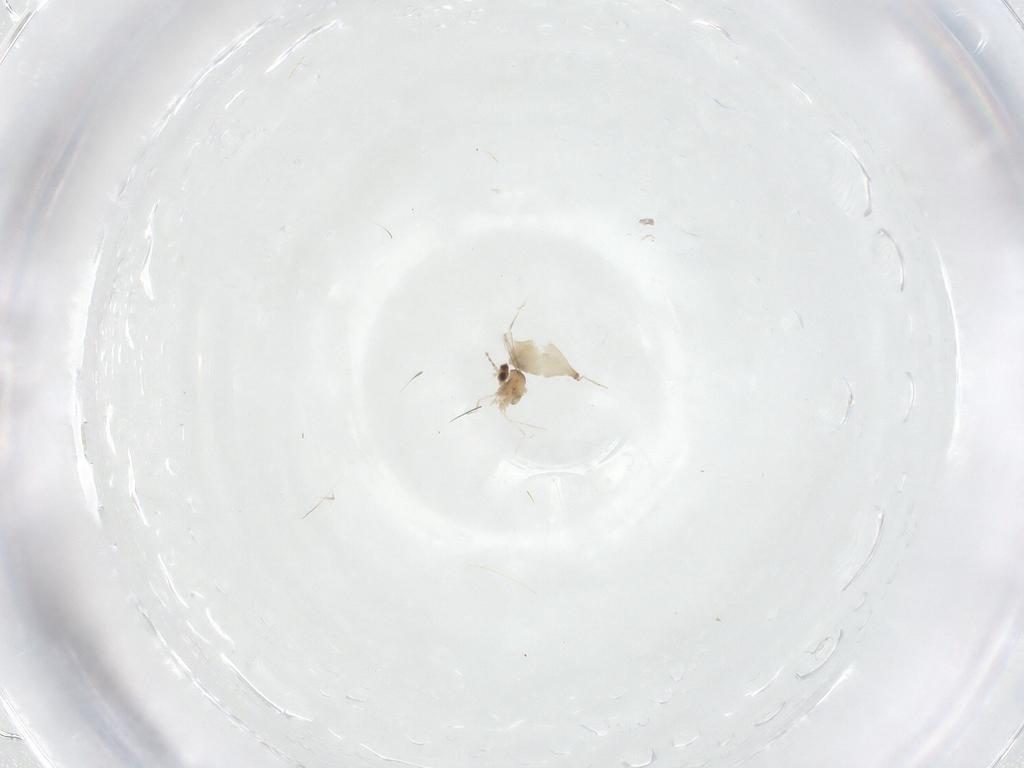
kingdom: Animalia
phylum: Arthropoda
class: Insecta
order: Diptera
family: Cecidomyiidae
